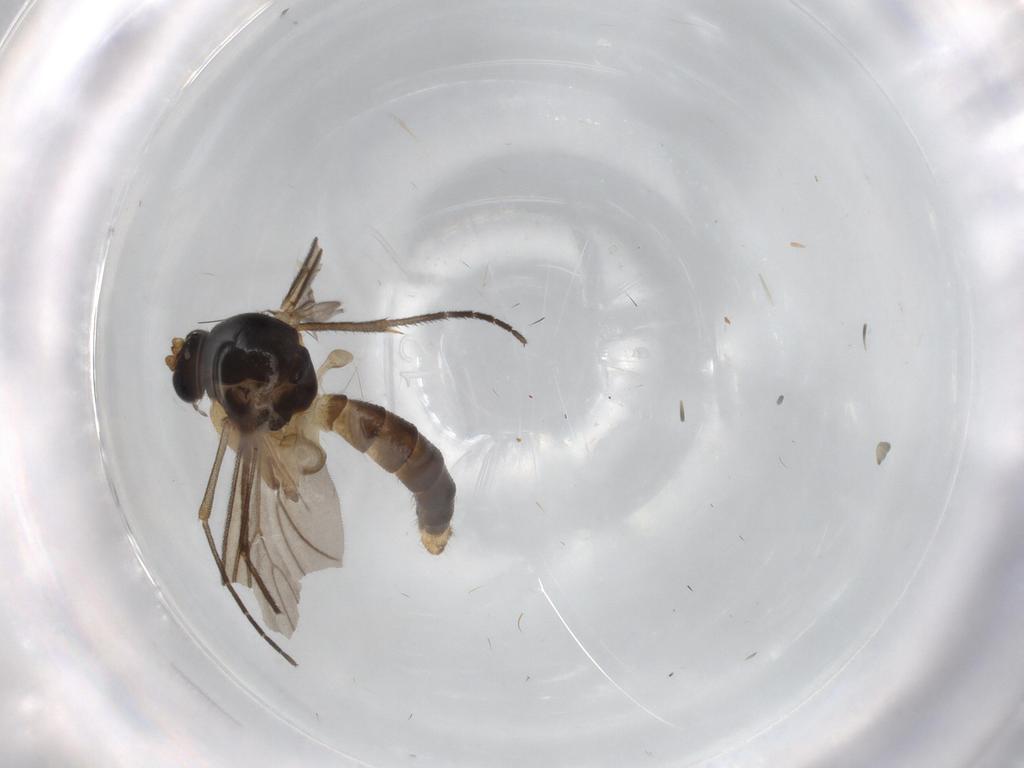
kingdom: Animalia
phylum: Arthropoda
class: Insecta
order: Diptera
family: Mycetophilidae
